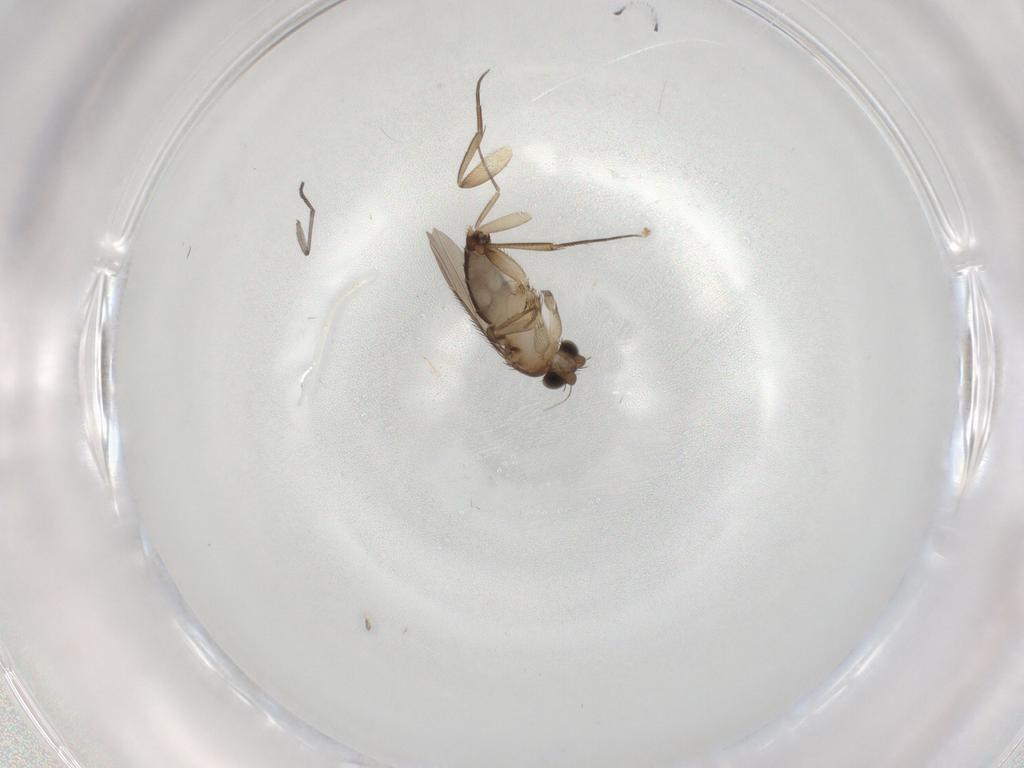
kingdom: Animalia
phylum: Arthropoda
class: Insecta
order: Diptera
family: Phoridae
